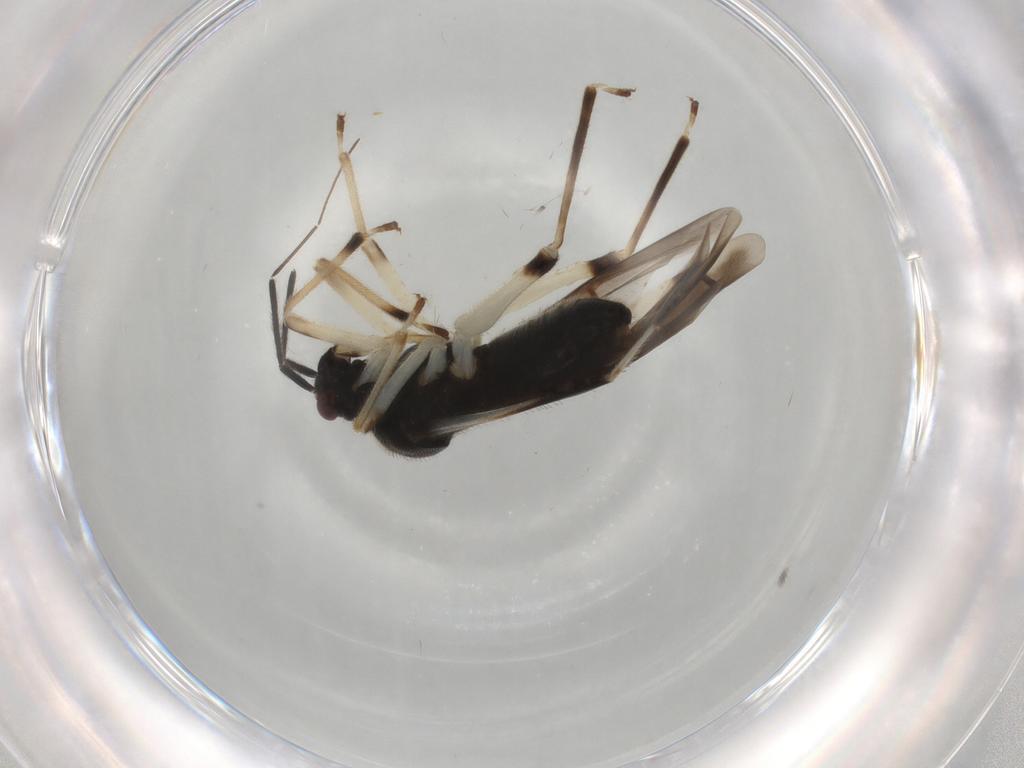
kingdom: Animalia
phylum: Arthropoda
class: Insecta
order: Hemiptera
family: Miridae
